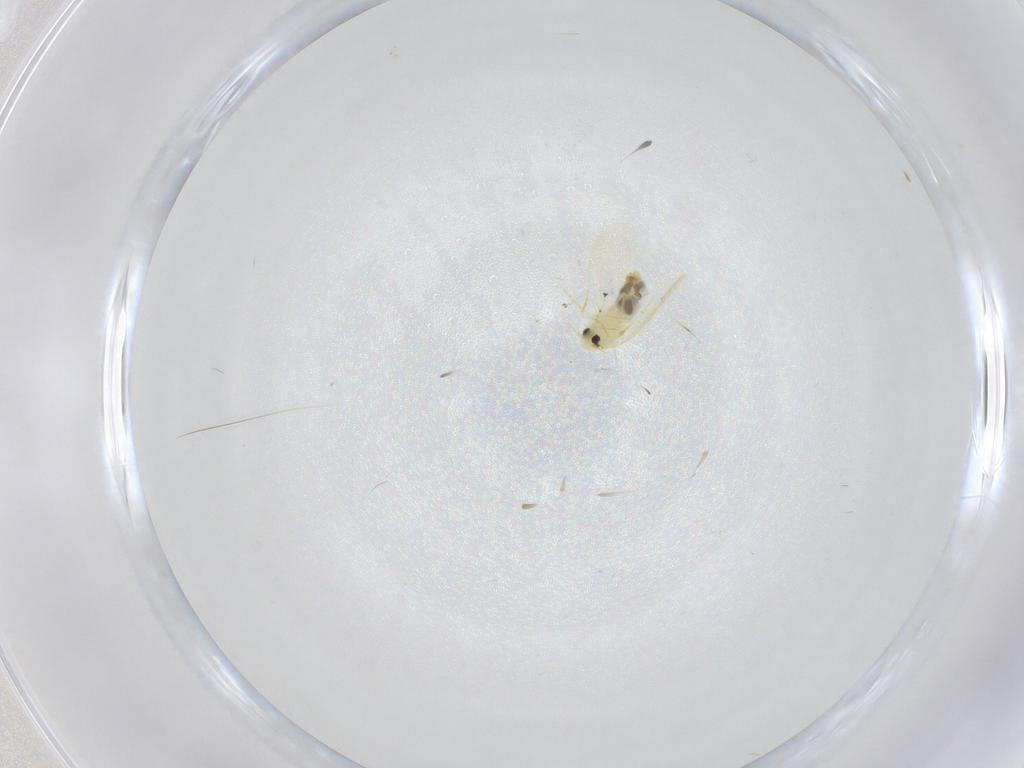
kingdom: Animalia
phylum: Arthropoda
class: Insecta
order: Hemiptera
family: Aleyrodidae
